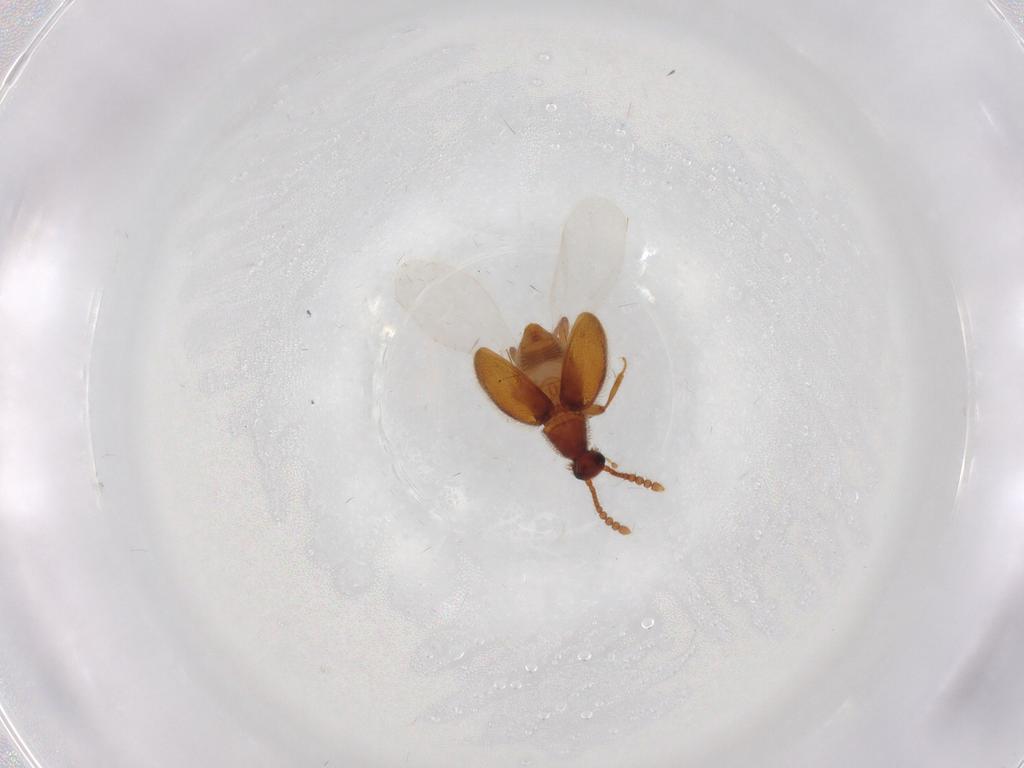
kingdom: Animalia
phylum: Arthropoda
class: Insecta
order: Coleoptera
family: Staphylinidae
